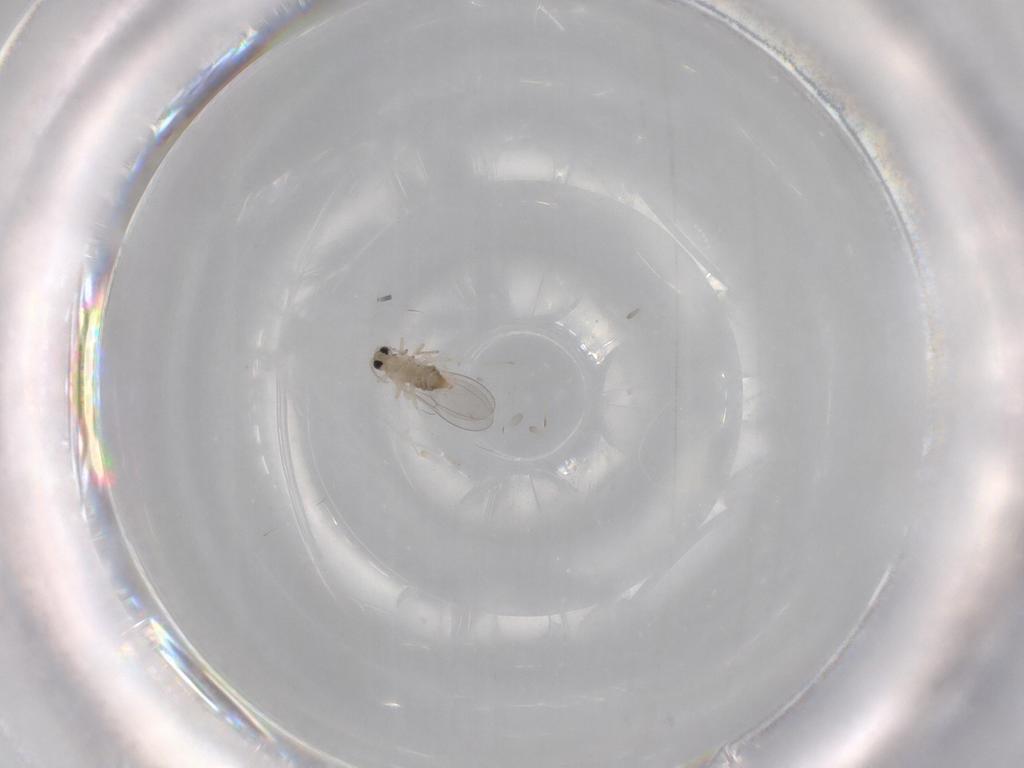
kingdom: Animalia
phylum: Arthropoda
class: Insecta
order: Diptera
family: Cecidomyiidae
